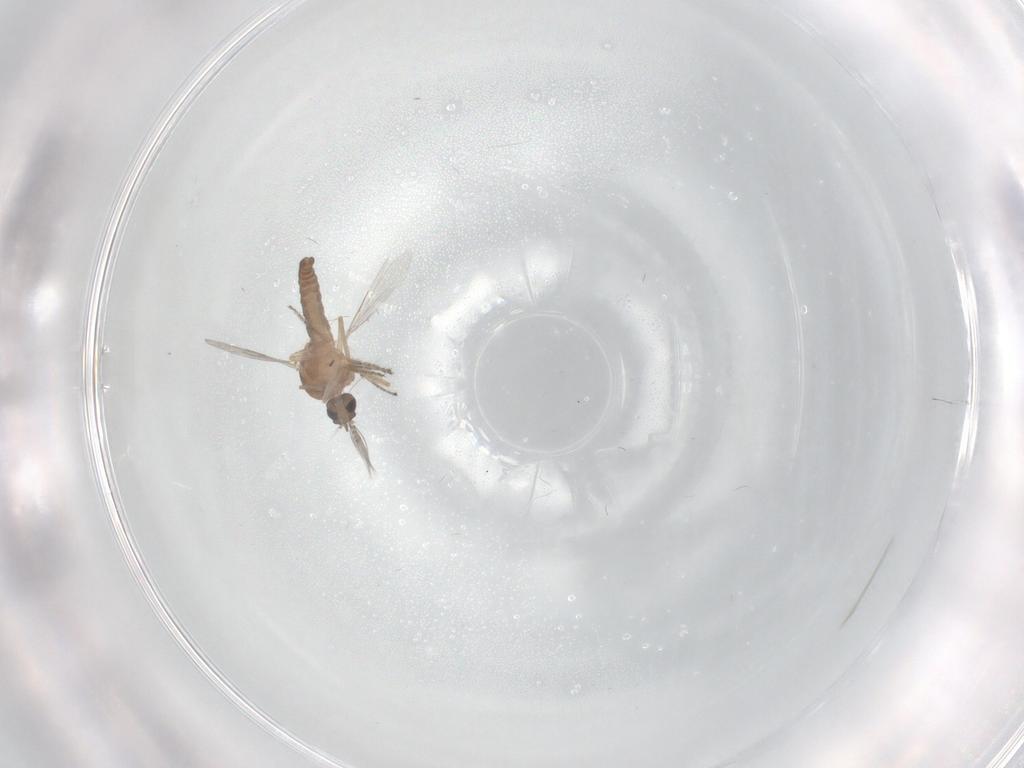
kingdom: Animalia
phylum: Arthropoda
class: Insecta
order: Diptera
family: Ceratopogonidae
